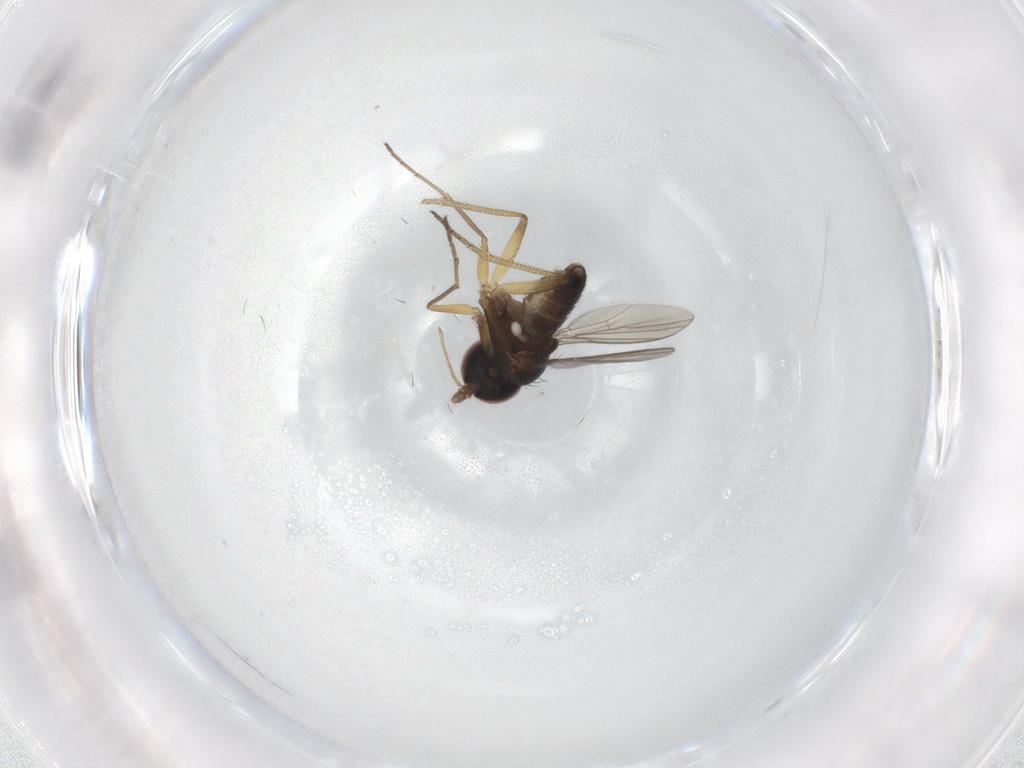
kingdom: Animalia
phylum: Arthropoda
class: Insecta
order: Diptera
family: Dolichopodidae
